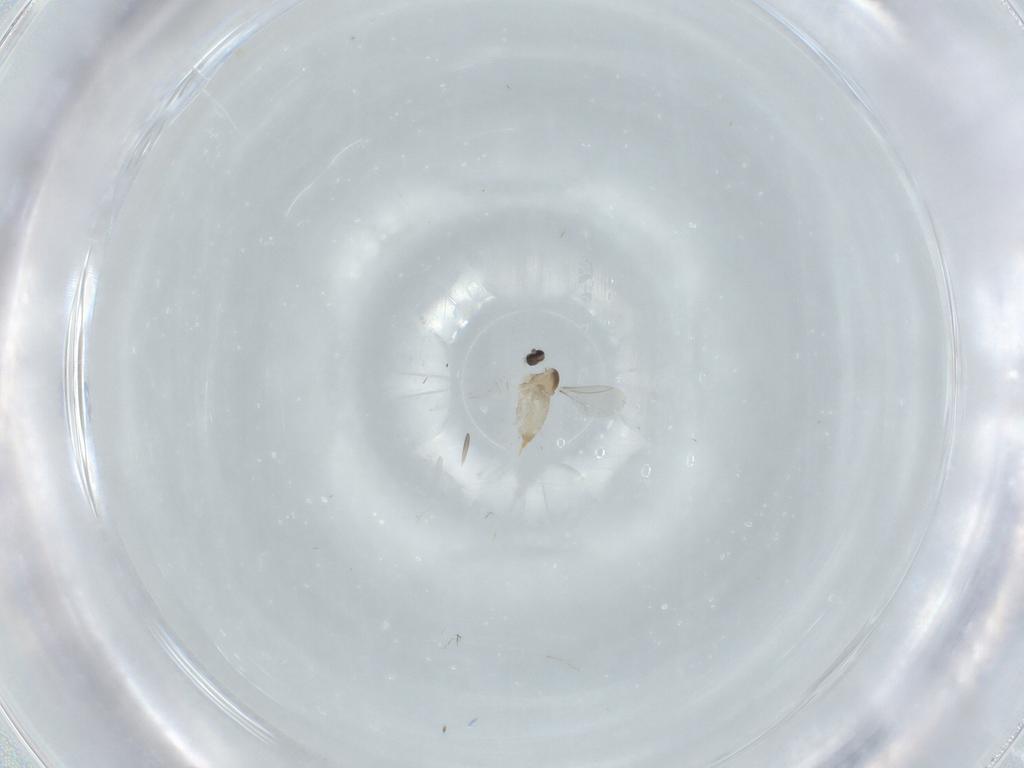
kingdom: Animalia
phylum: Arthropoda
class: Insecta
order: Diptera
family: Cecidomyiidae
